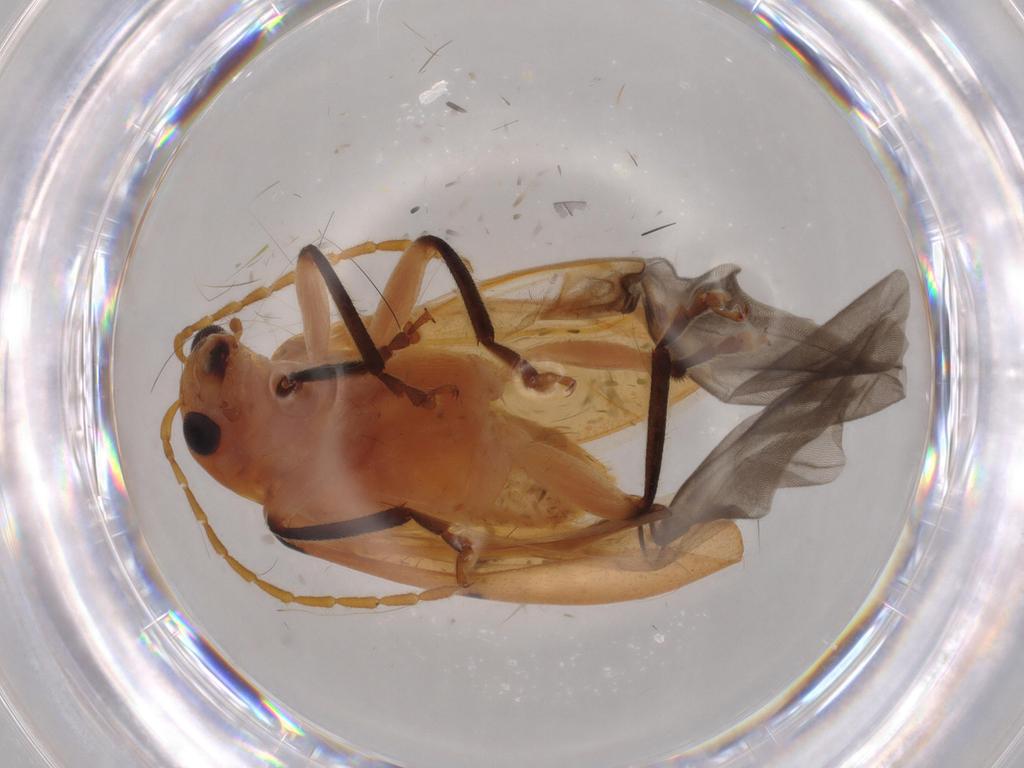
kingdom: Animalia
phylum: Arthropoda
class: Insecta
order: Coleoptera
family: Chrysomelidae
